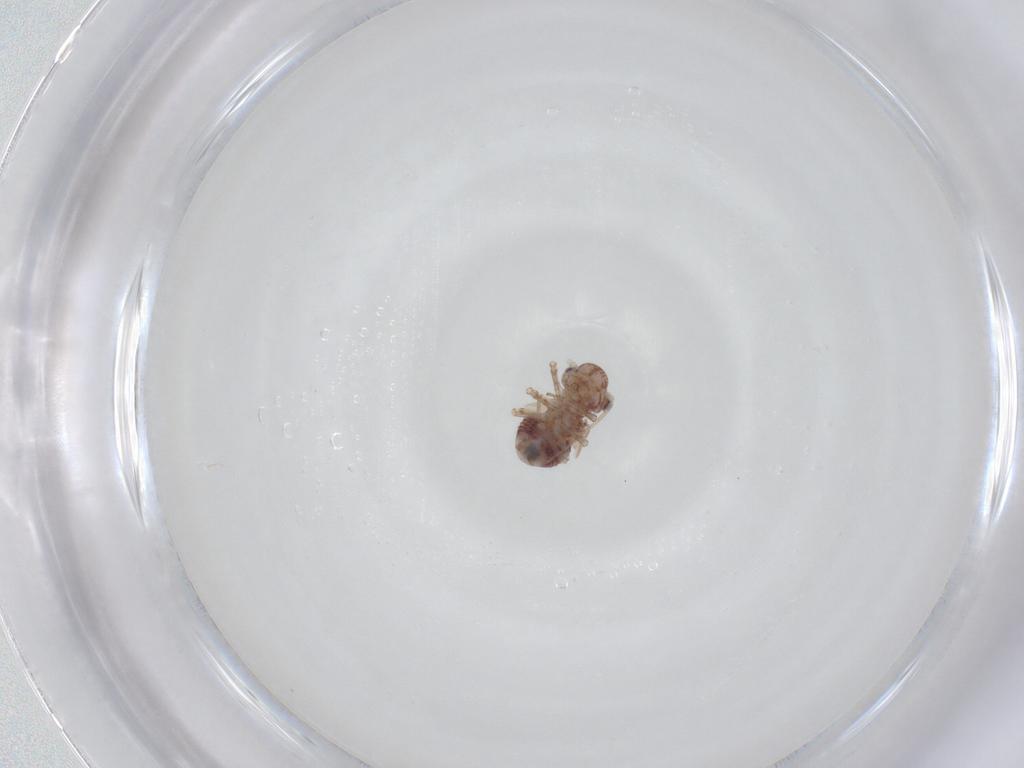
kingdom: Animalia
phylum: Arthropoda
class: Insecta
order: Psocodea
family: Myopsocidae
